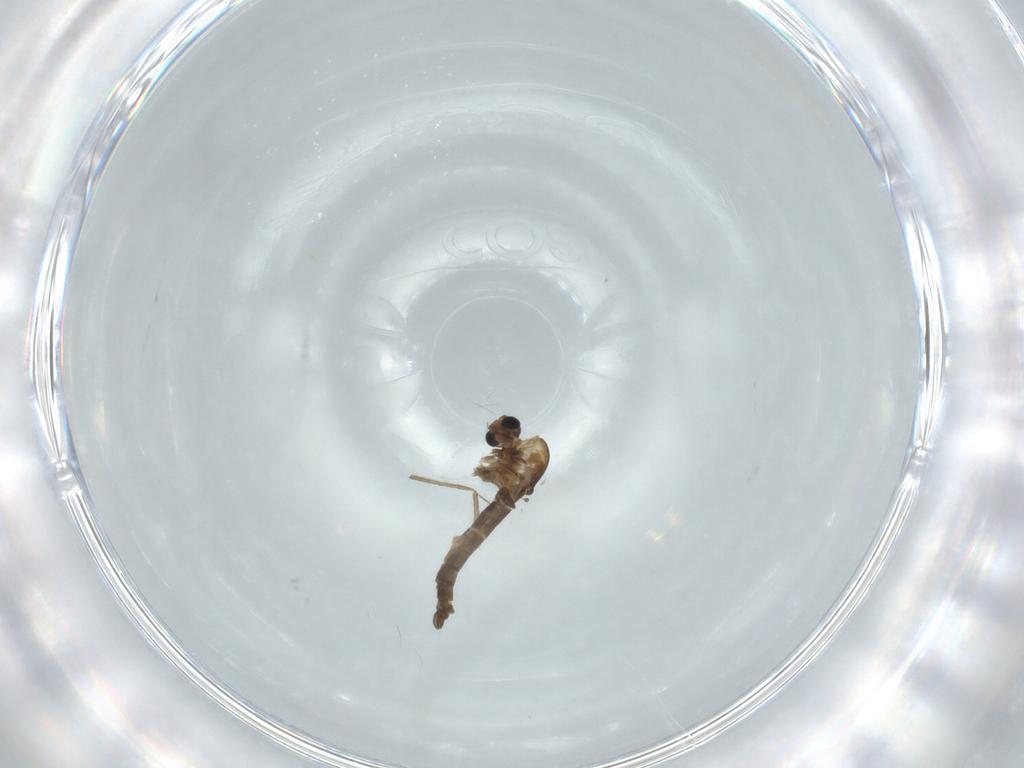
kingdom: Animalia
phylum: Arthropoda
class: Insecta
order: Diptera
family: Chironomidae
